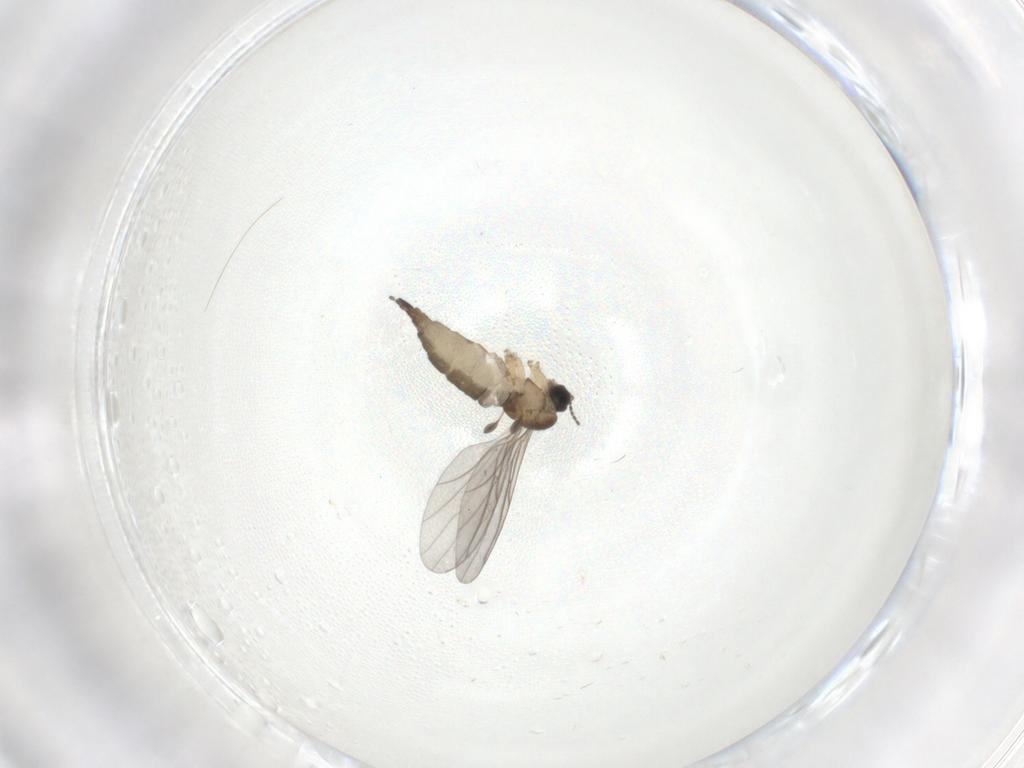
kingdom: Animalia
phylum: Arthropoda
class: Insecta
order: Diptera
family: Sciaridae
